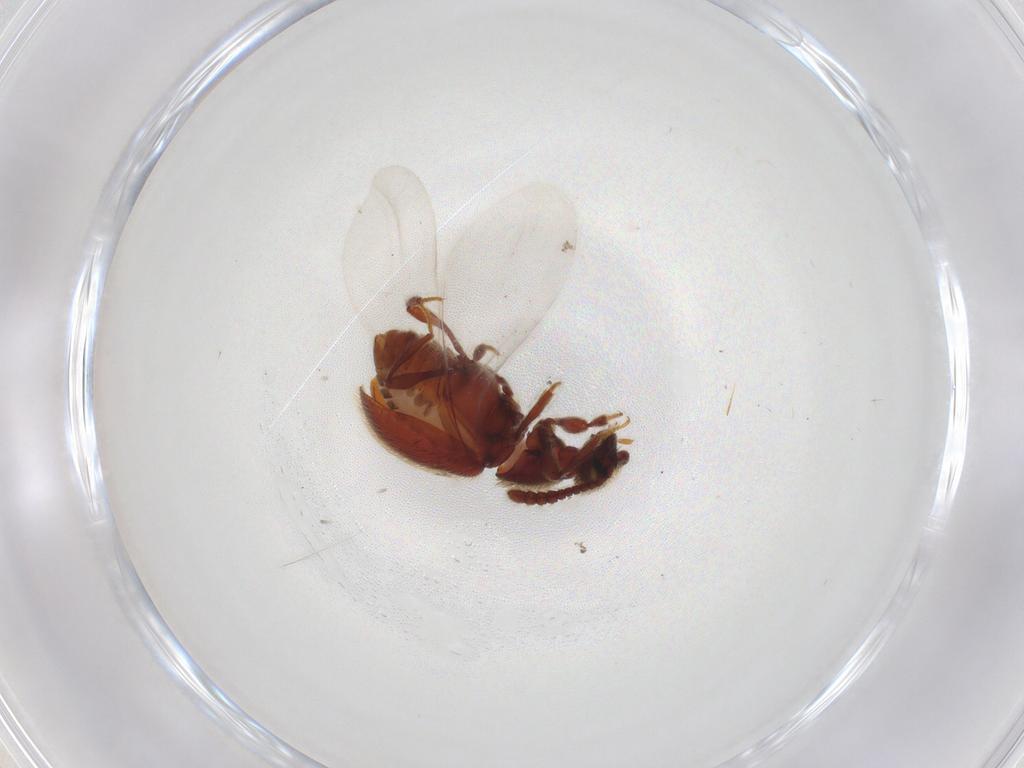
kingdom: Animalia
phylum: Arthropoda
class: Insecta
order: Coleoptera
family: Staphylinidae
